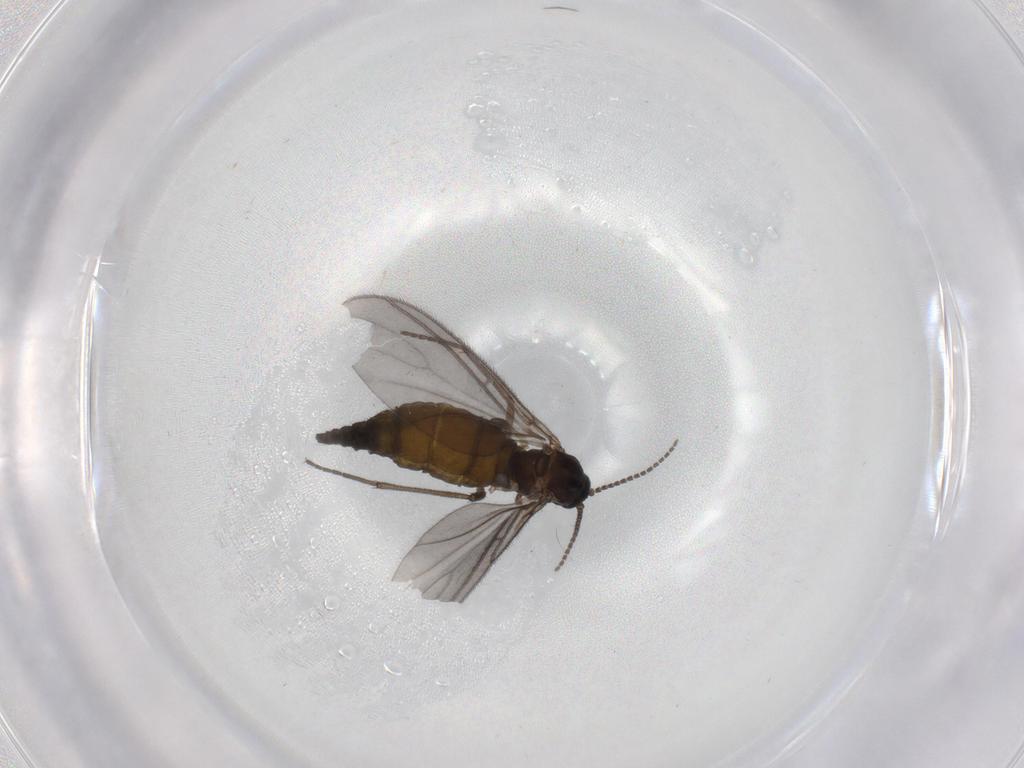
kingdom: Animalia
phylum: Arthropoda
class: Insecta
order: Diptera
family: Sciaridae
